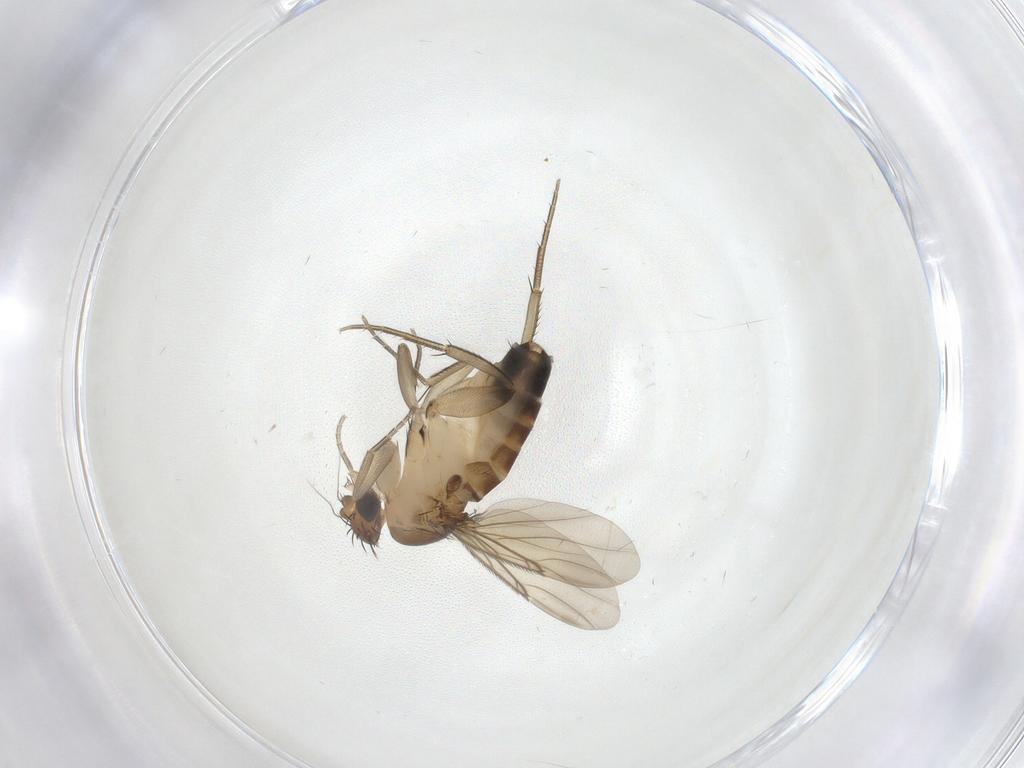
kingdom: Animalia
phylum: Arthropoda
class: Insecta
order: Diptera
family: Phoridae
